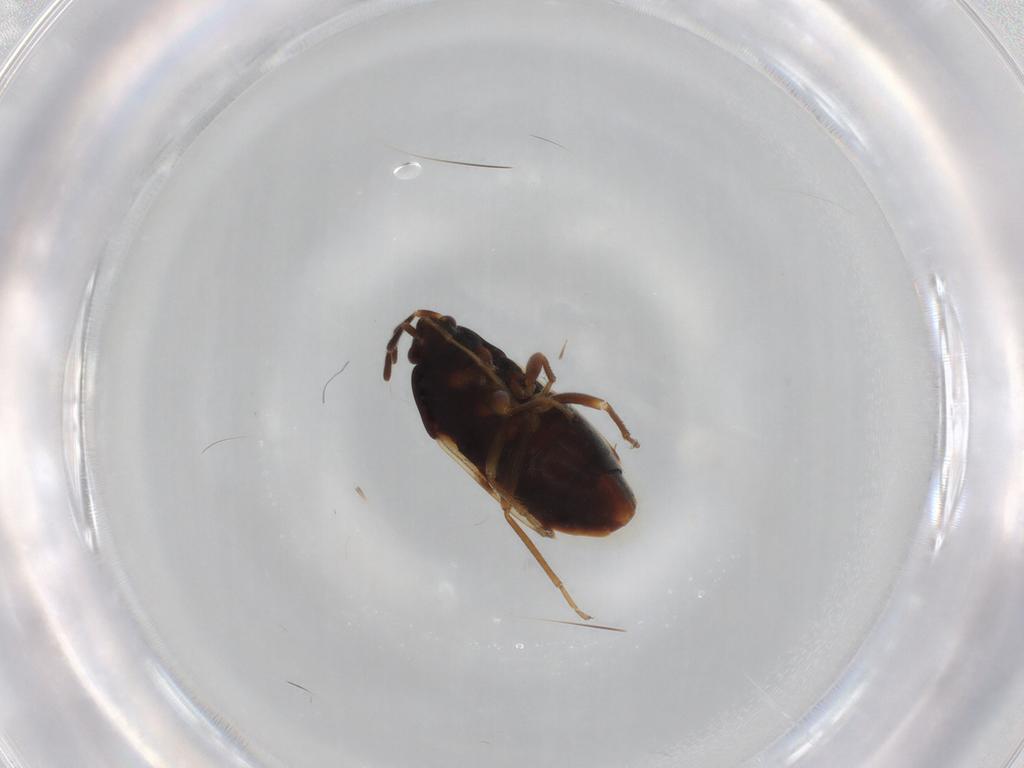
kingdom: Animalia
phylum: Arthropoda
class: Insecta
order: Hemiptera
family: Rhyparochromidae
